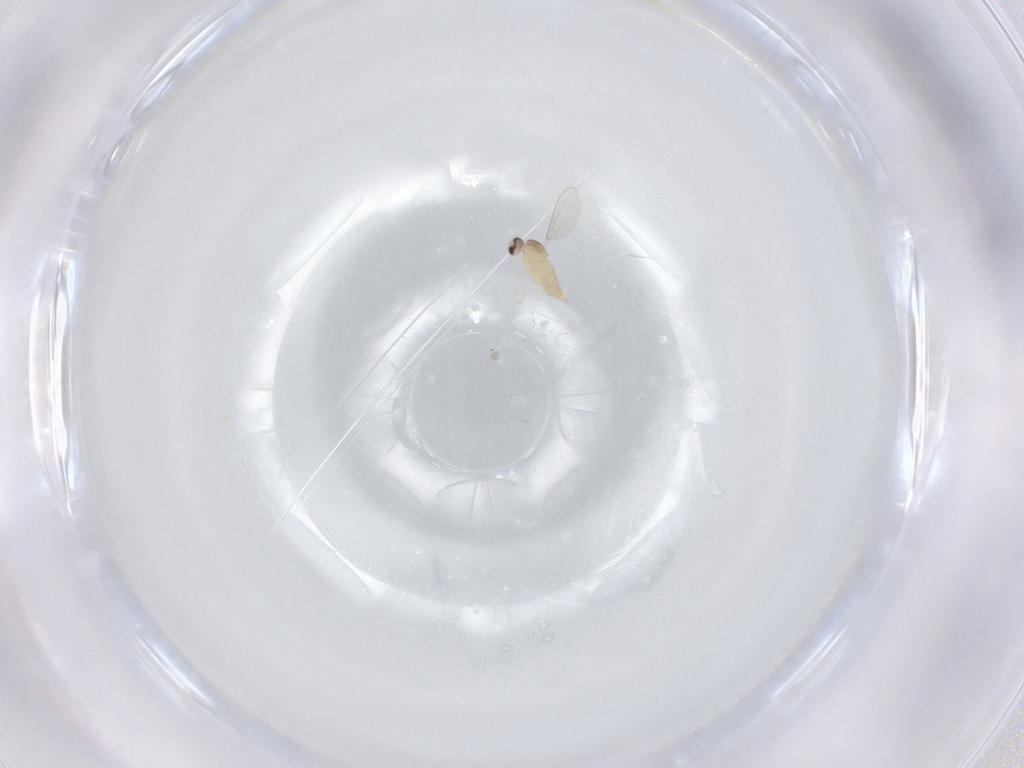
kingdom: Animalia
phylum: Arthropoda
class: Insecta
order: Diptera
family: Cecidomyiidae
